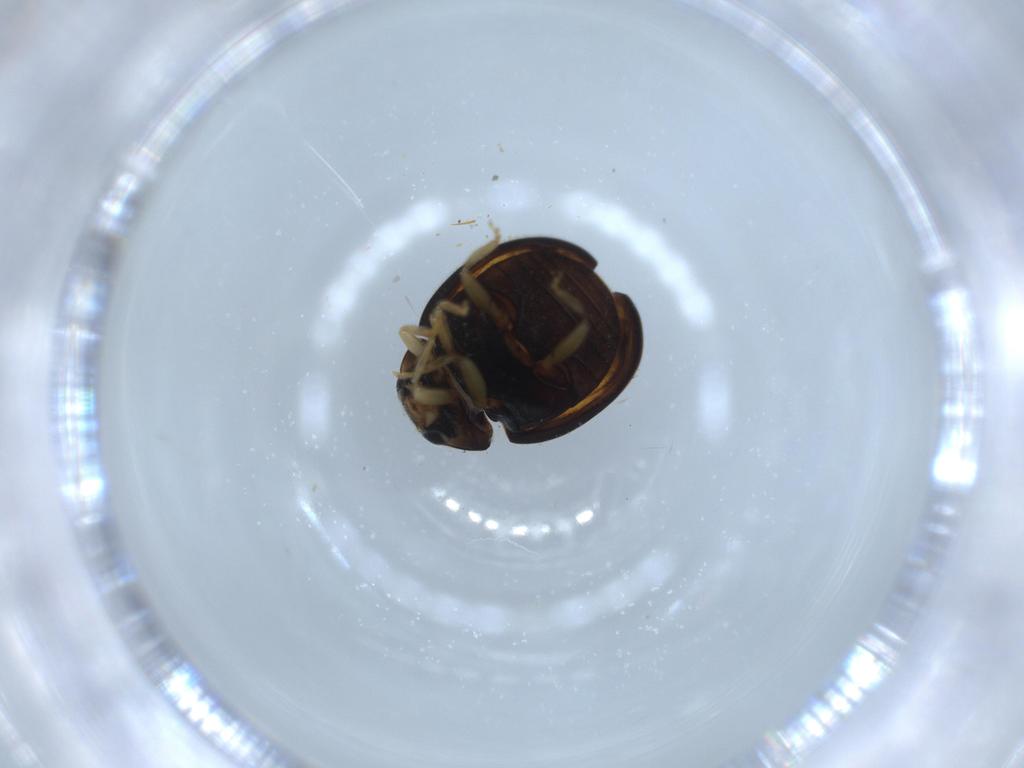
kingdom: Animalia
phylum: Arthropoda
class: Insecta
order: Coleoptera
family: Coccinellidae
